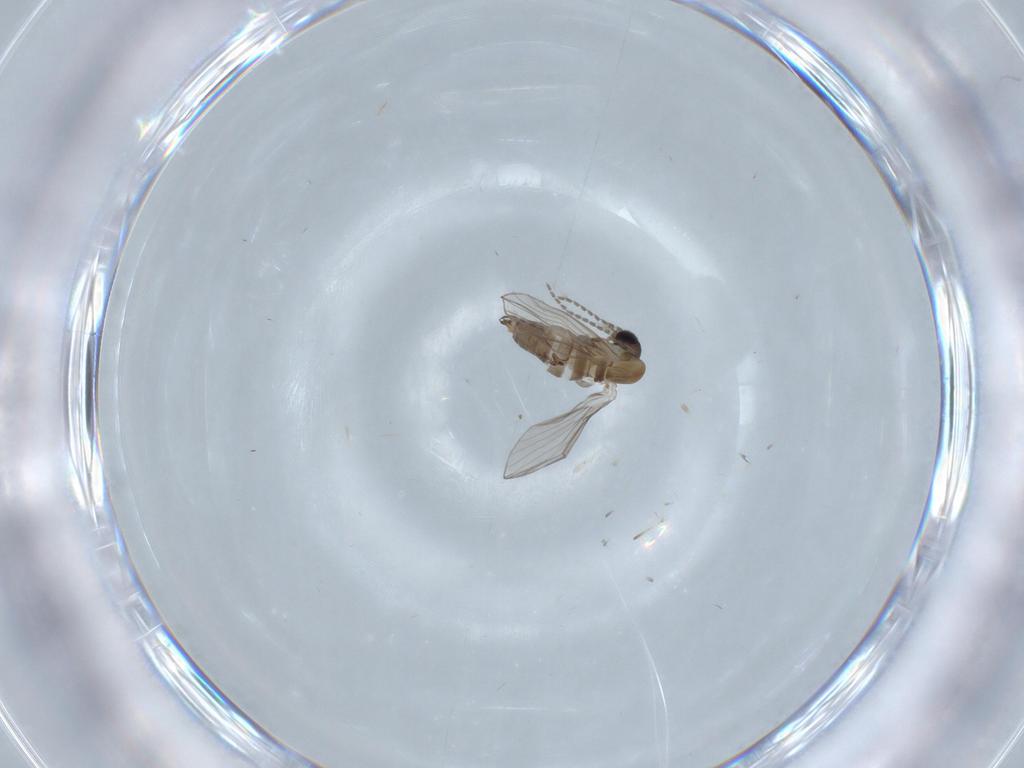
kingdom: Animalia
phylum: Arthropoda
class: Insecta
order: Diptera
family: Psychodidae
